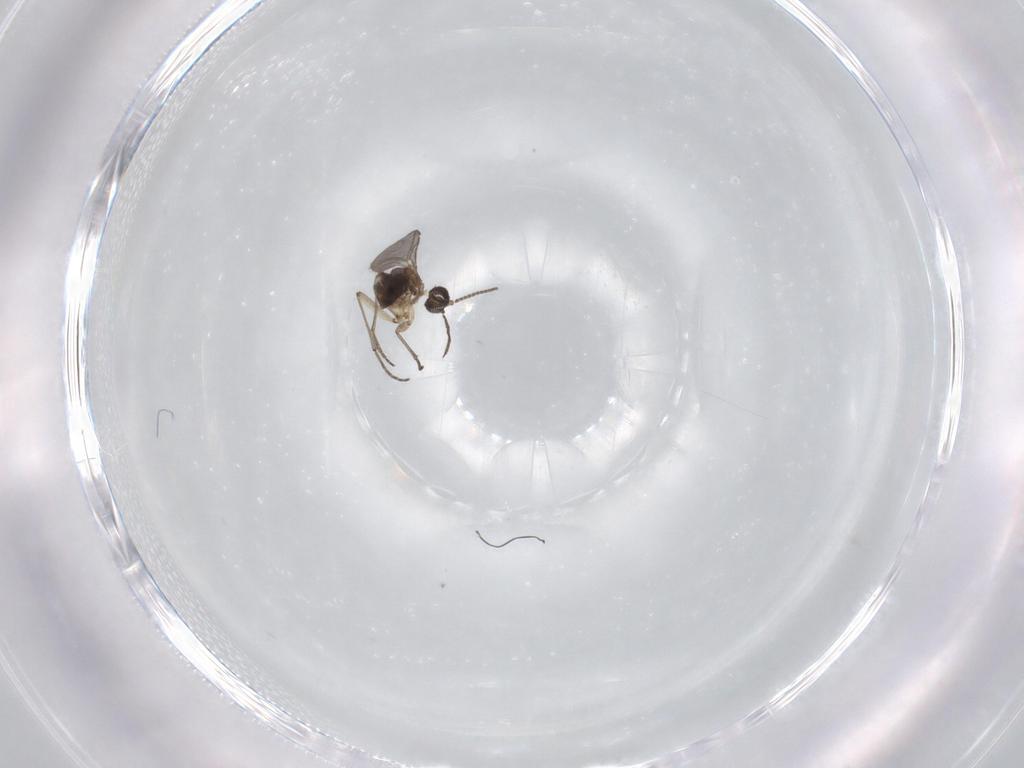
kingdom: Animalia
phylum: Arthropoda
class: Insecta
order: Diptera
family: Sciaridae
